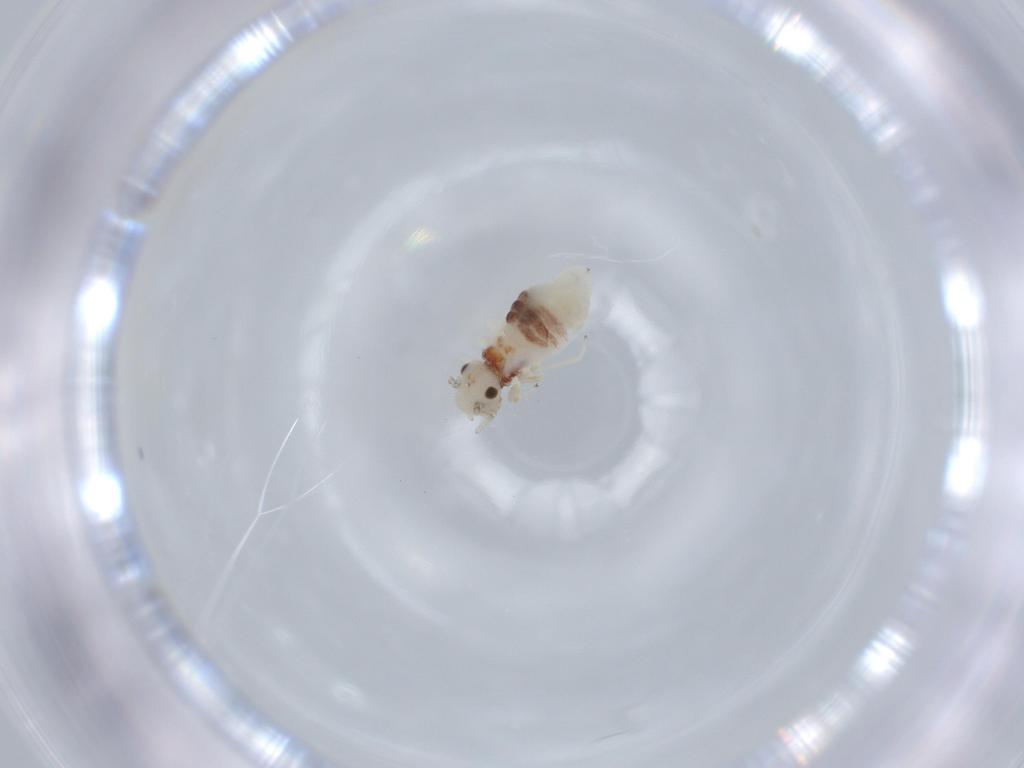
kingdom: Animalia
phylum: Arthropoda
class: Insecta
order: Psocodea
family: Caeciliusidae
